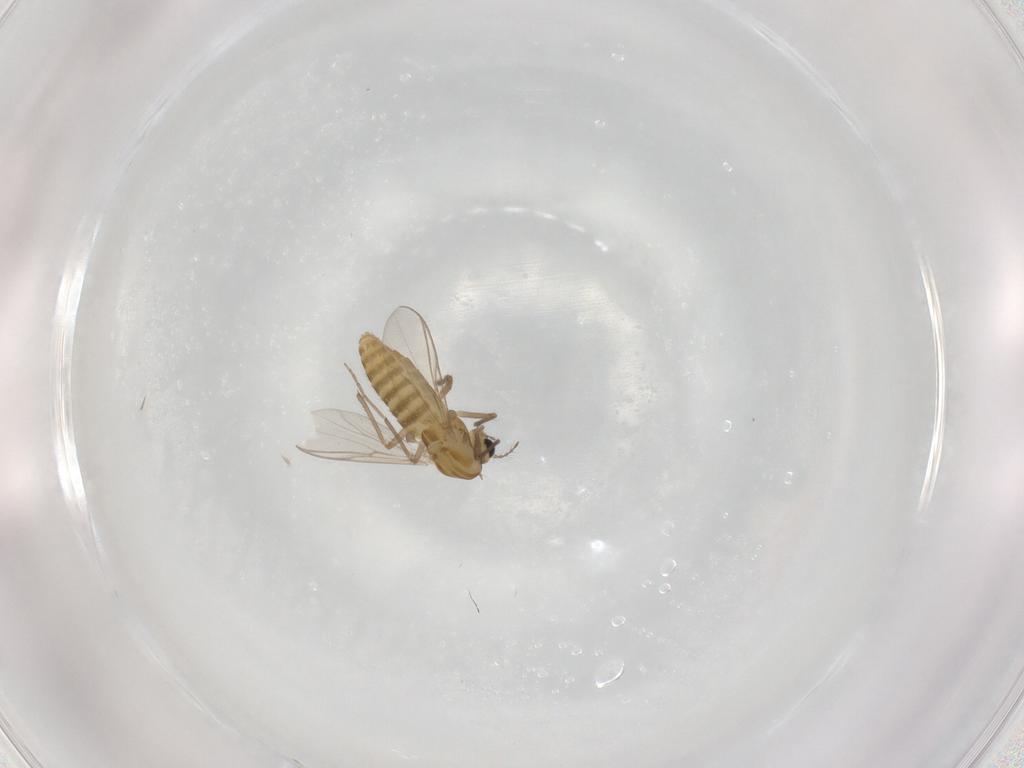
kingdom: Animalia
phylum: Arthropoda
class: Insecta
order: Diptera
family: Chironomidae
